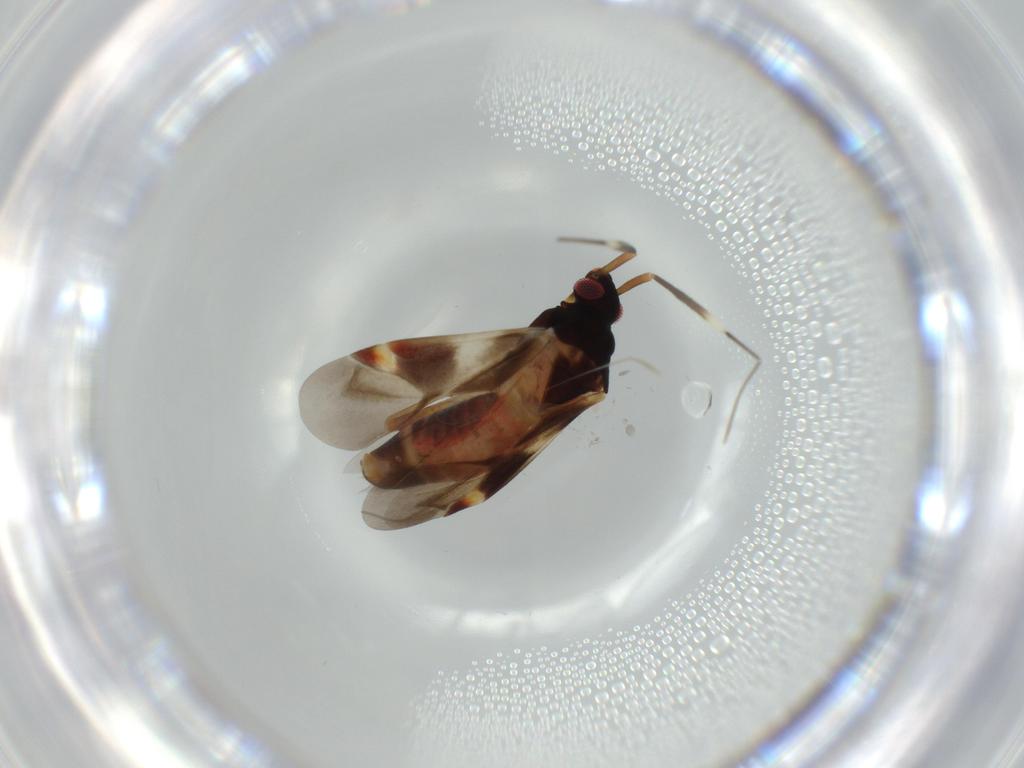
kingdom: Animalia
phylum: Arthropoda
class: Insecta
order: Hemiptera
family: Miridae
